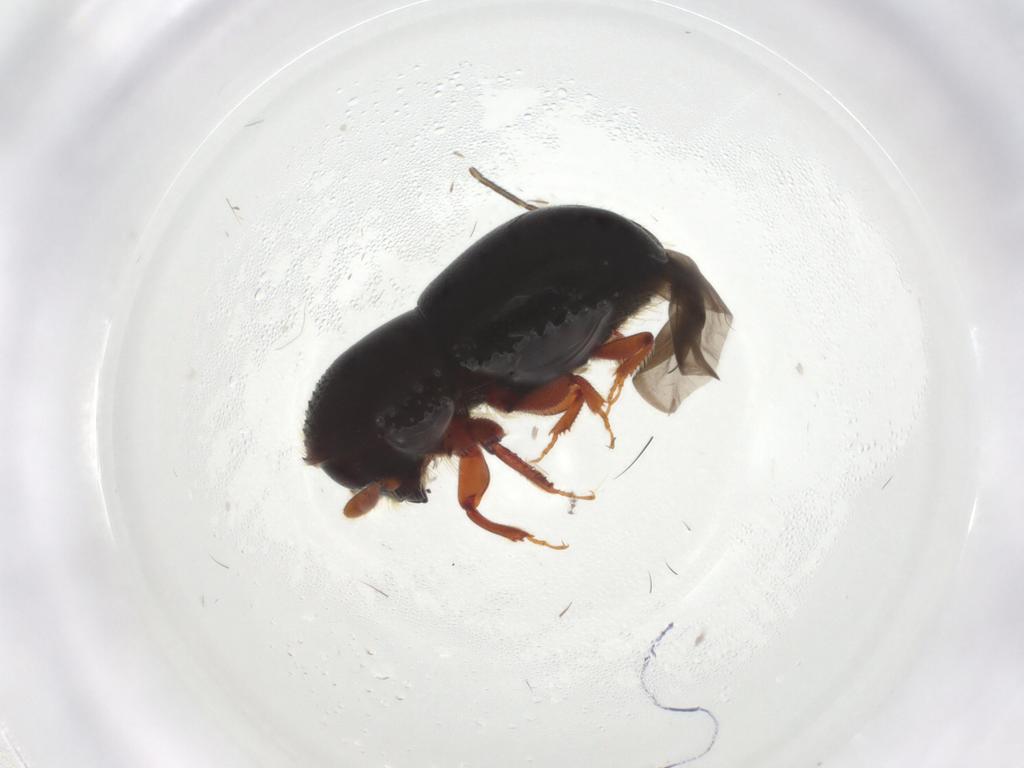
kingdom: Animalia
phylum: Arthropoda
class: Insecta
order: Coleoptera
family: Curculionidae
